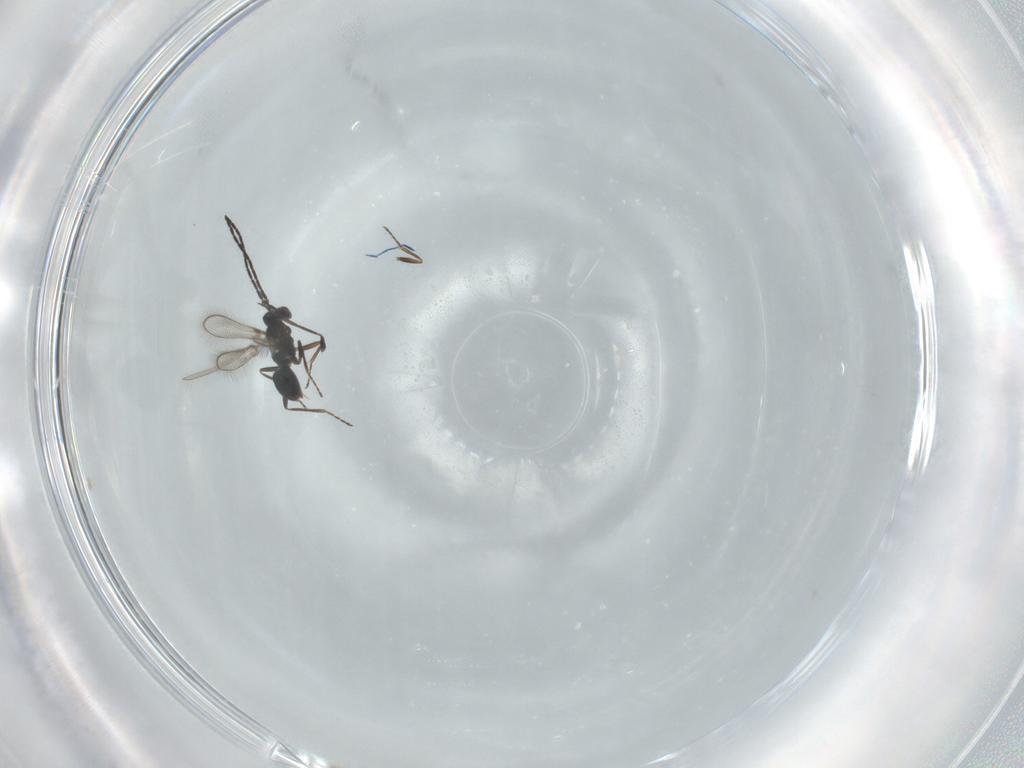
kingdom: Animalia
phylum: Arthropoda
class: Insecta
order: Hymenoptera
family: Mymaridae
